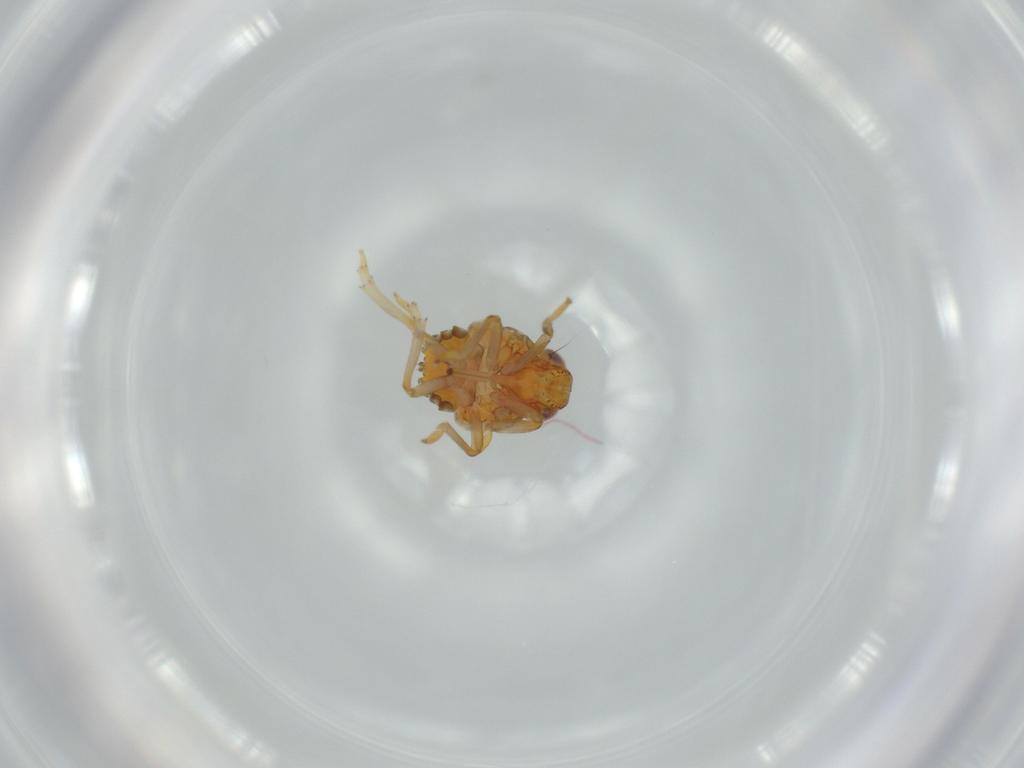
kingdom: Animalia
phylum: Arthropoda
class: Insecta
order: Hemiptera
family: Issidae
